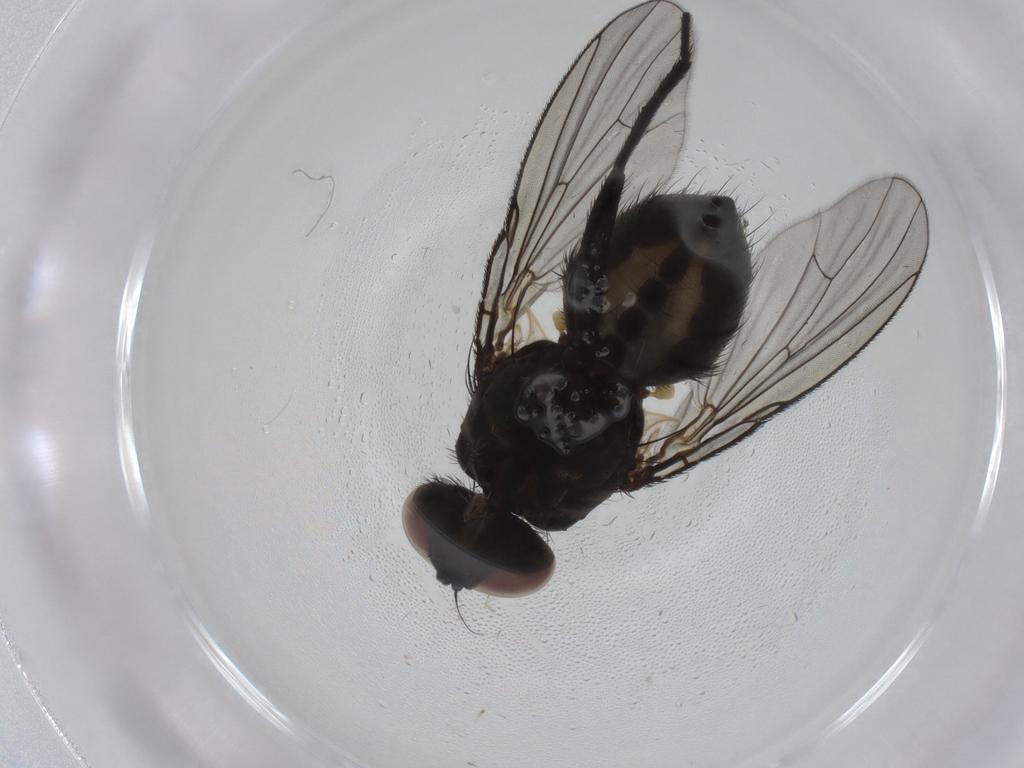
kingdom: Animalia
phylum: Arthropoda
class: Insecta
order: Diptera
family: Muscidae
